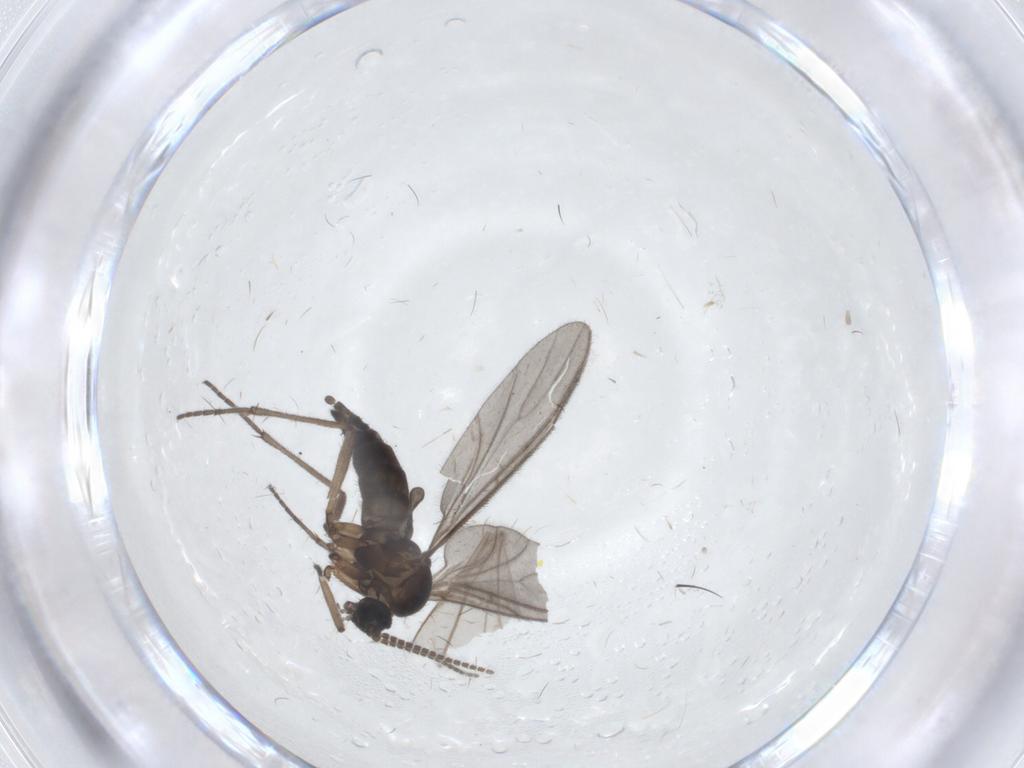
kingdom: Animalia
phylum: Arthropoda
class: Insecta
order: Diptera
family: Sciaridae
